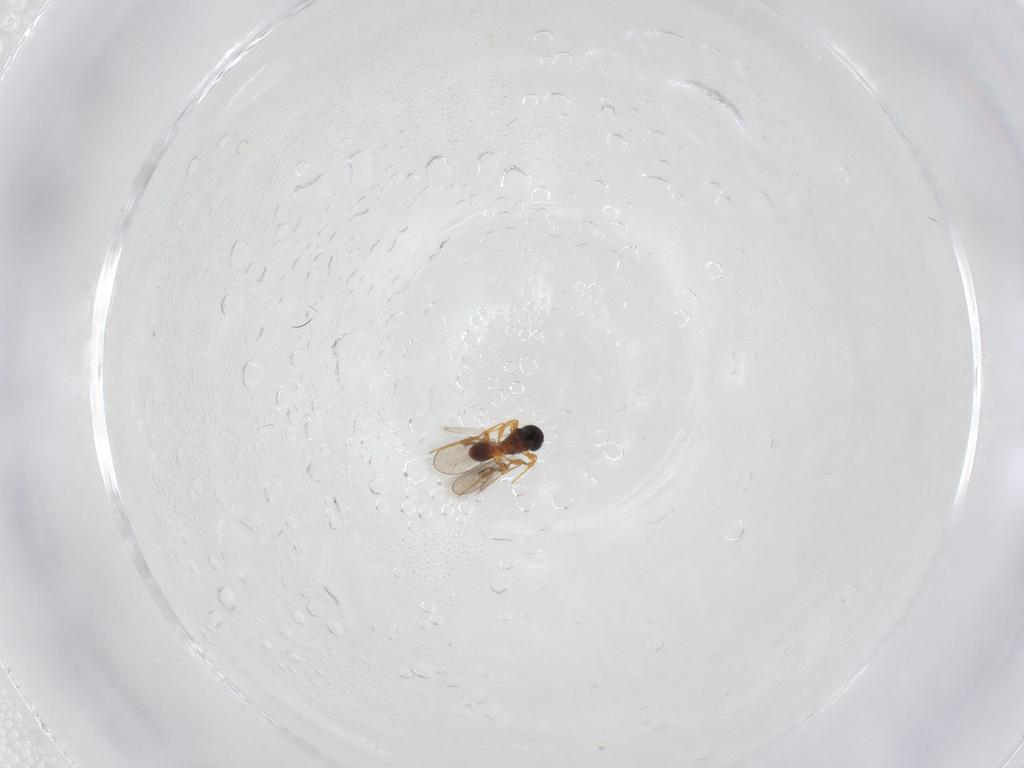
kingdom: Animalia
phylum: Arthropoda
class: Insecta
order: Hymenoptera
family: Platygastridae
